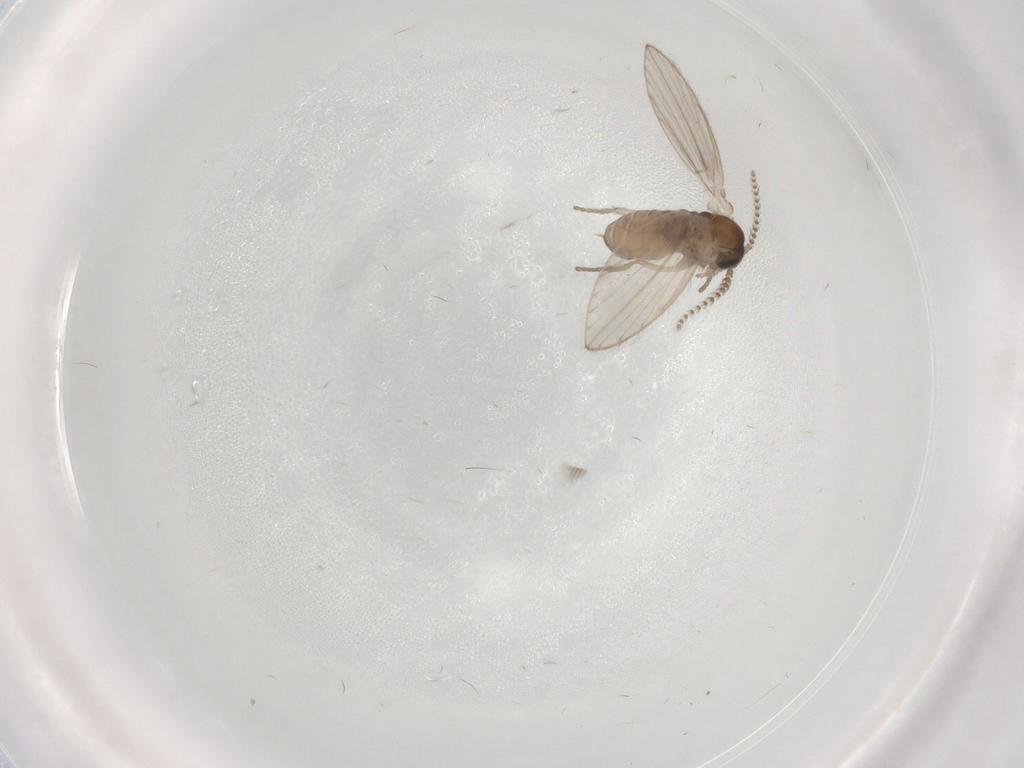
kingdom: Animalia
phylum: Arthropoda
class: Insecta
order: Diptera
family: Psychodidae
